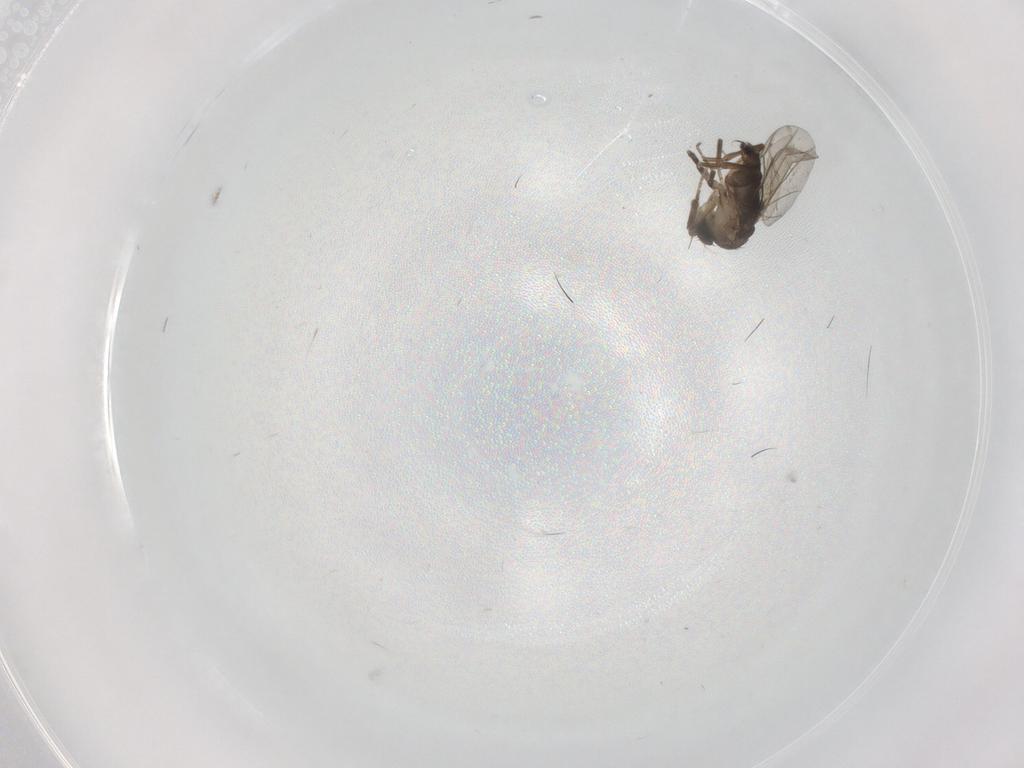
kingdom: Animalia
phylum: Arthropoda
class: Insecta
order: Diptera
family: Phoridae
